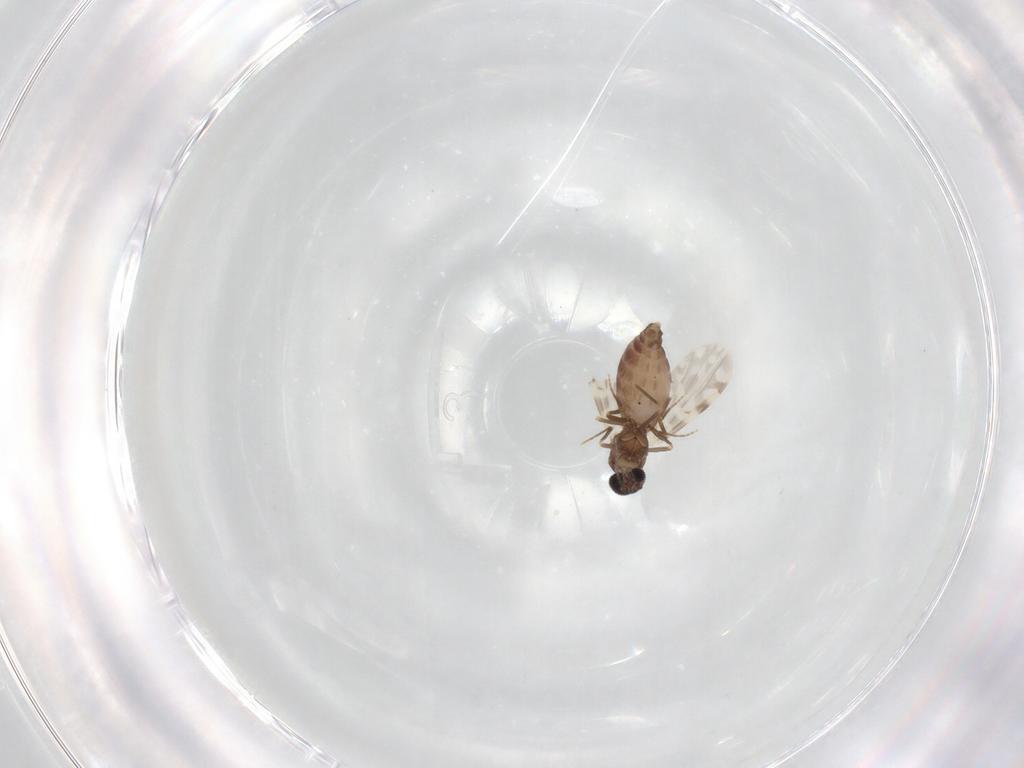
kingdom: Animalia
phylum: Arthropoda
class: Insecta
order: Diptera
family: Ceratopogonidae
